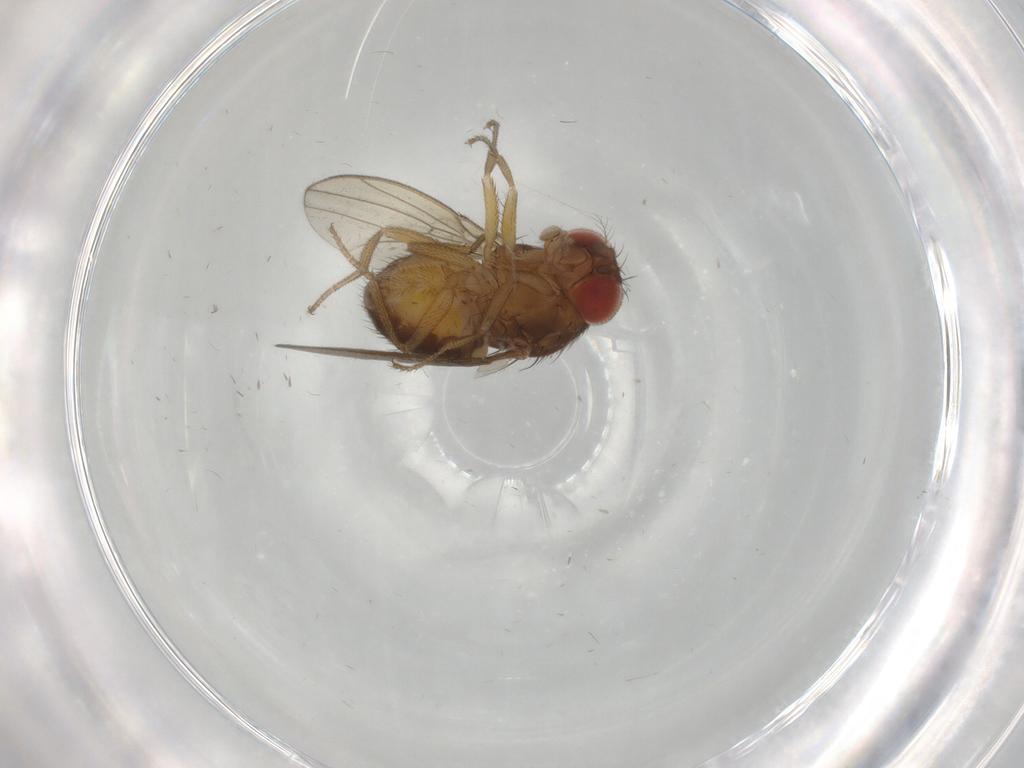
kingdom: Animalia
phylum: Arthropoda
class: Insecta
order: Diptera
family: Drosophilidae
